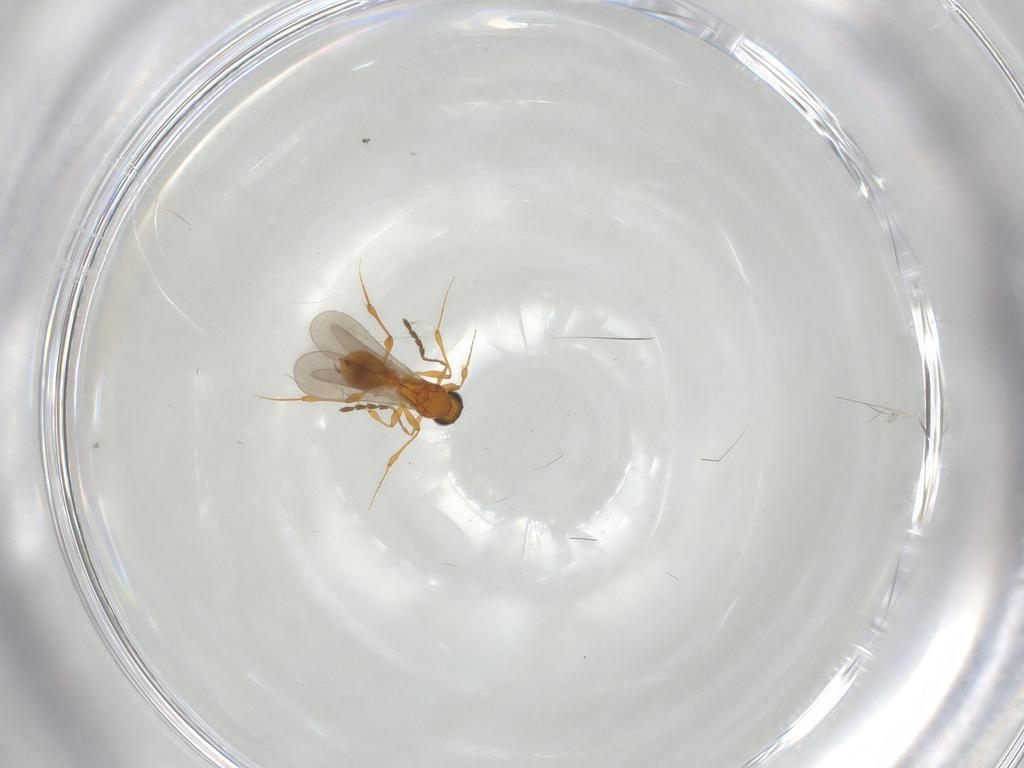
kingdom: Animalia
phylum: Arthropoda
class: Insecta
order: Hymenoptera
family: Platygastridae
